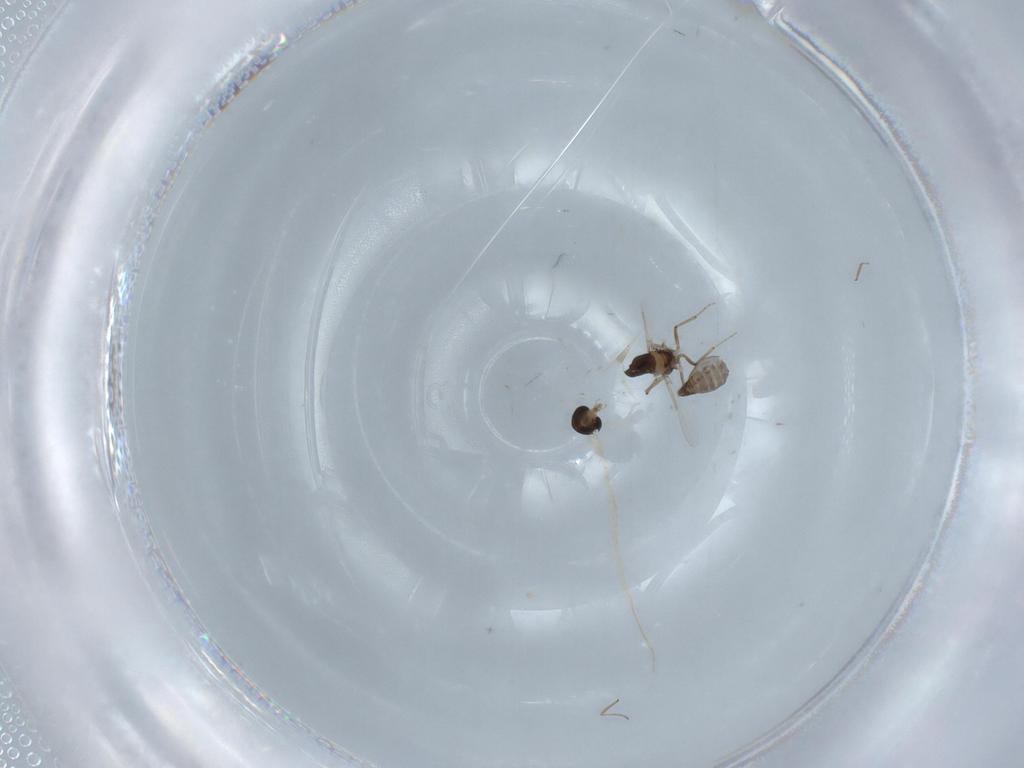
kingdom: Animalia
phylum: Arthropoda
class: Insecta
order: Diptera
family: Ceratopogonidae
